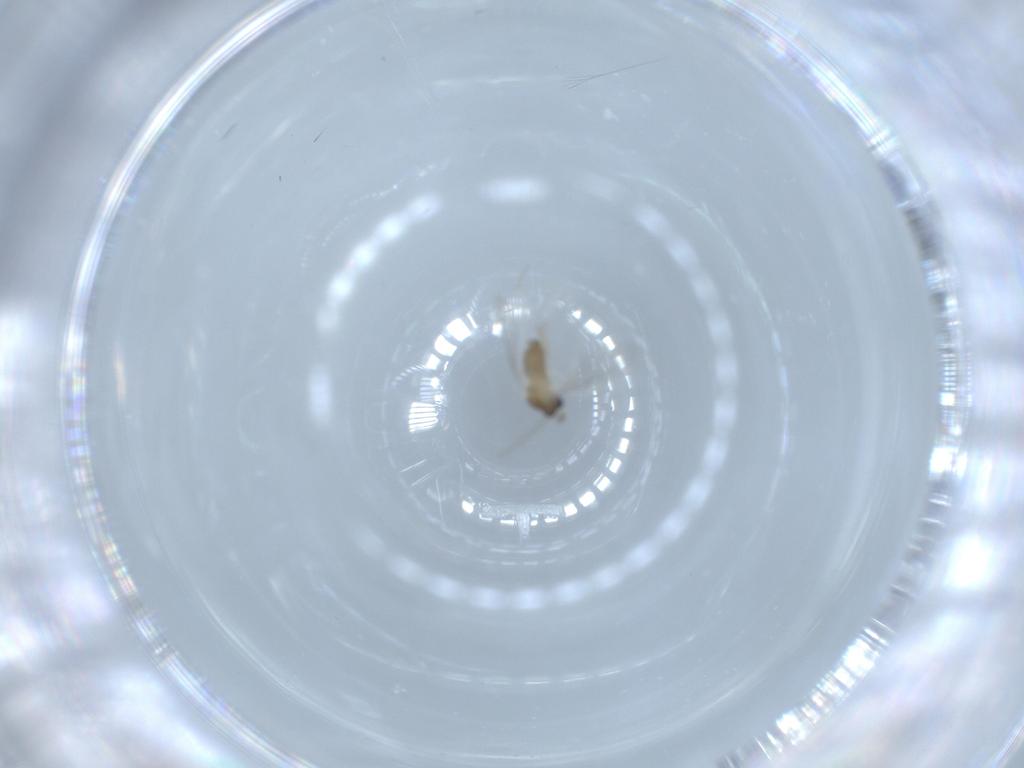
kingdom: Animalia
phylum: Arthropoda
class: Insecta
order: Diptera
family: Cecidomyiidae
